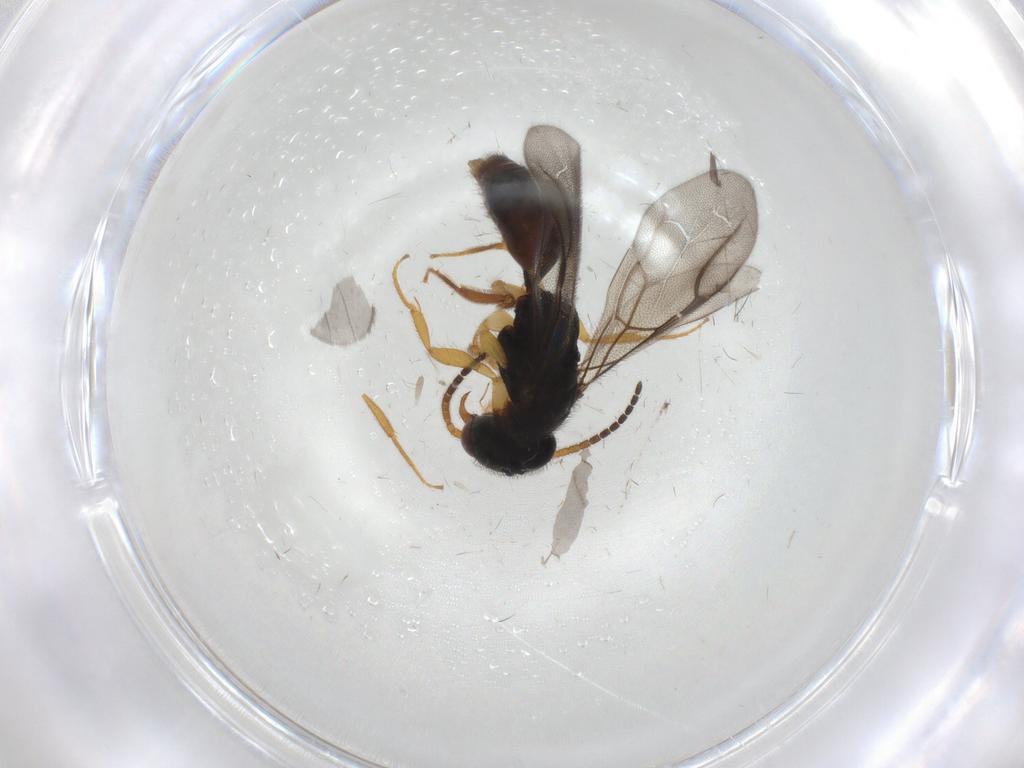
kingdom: Animalia
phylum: Arthropoda
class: Insecta
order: Hymenoptera
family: Bethylidae
